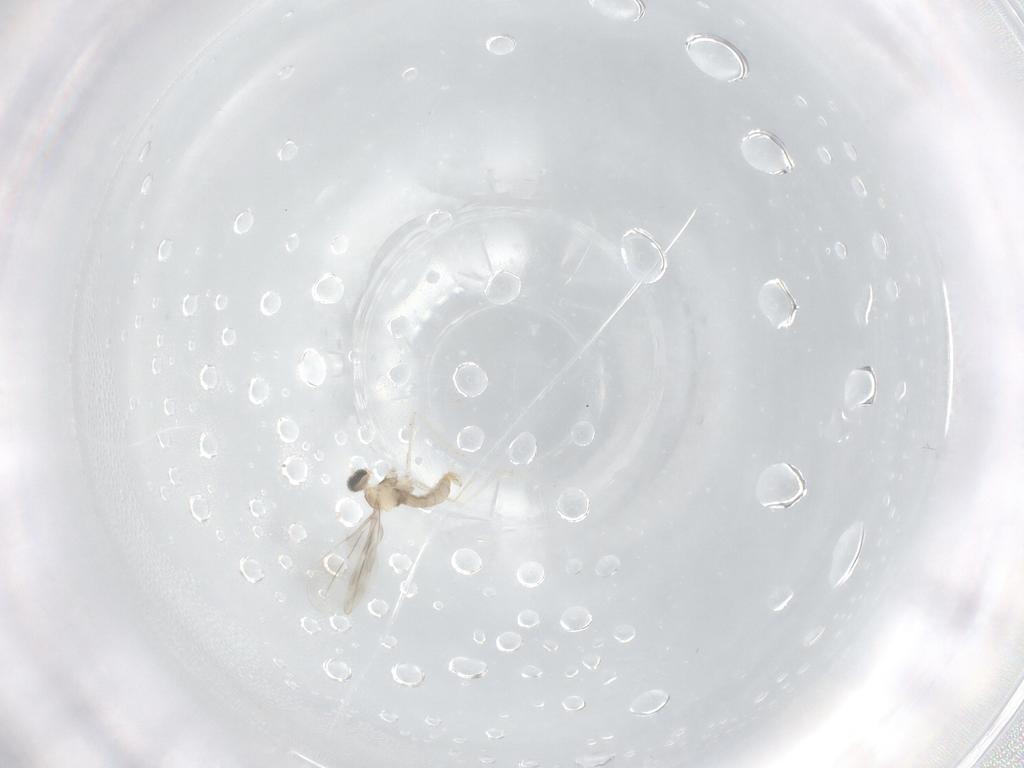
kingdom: Animalia
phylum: Arthropoda
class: Insecta
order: Diptera
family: Cecidomyiidae
